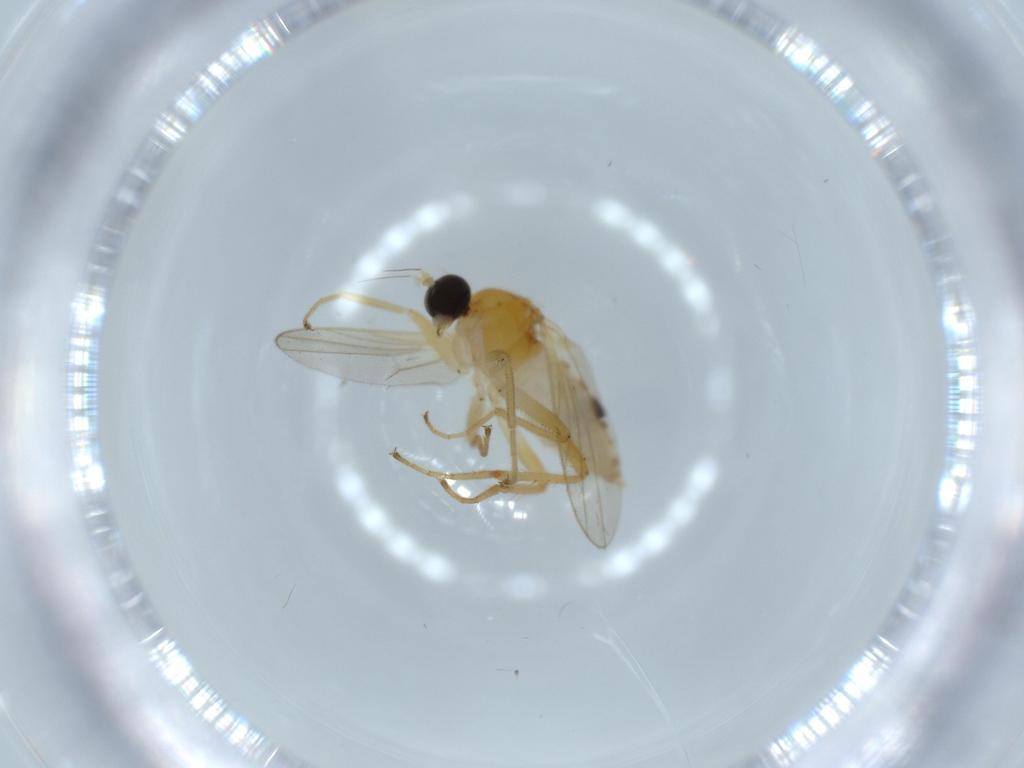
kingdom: Animalia
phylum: Arthropoda
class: Insecta
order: Diptera
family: Hybotidae
